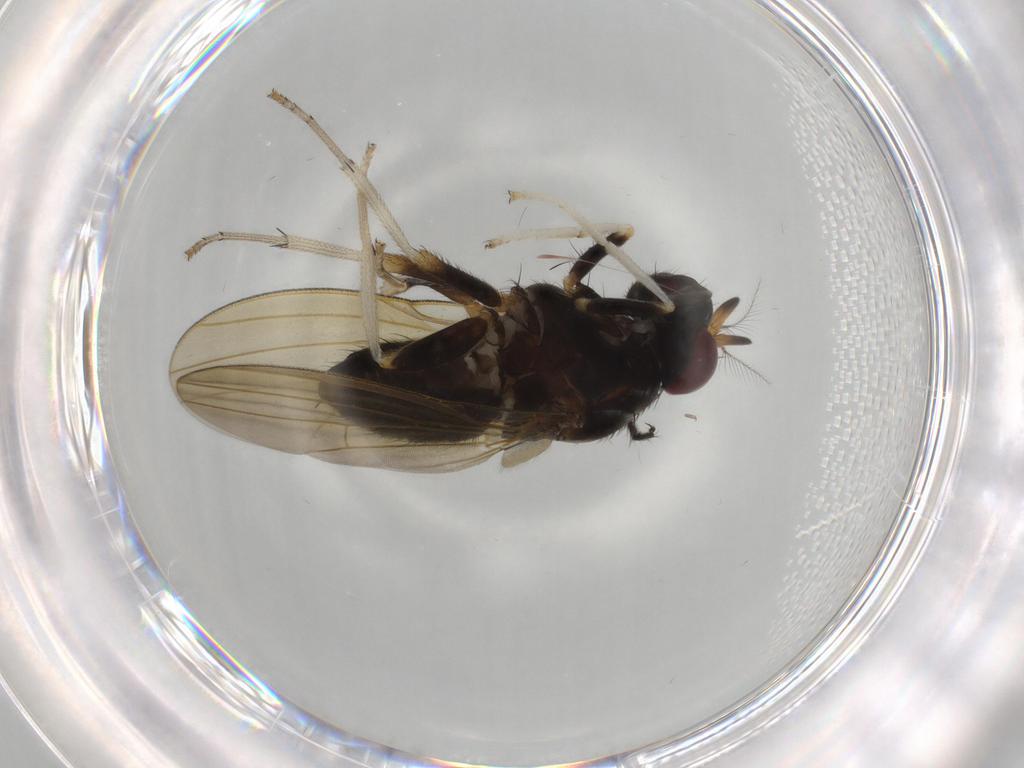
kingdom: Animalia
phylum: Arthropoda
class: Insecta
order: Diptera
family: Limoniidae
